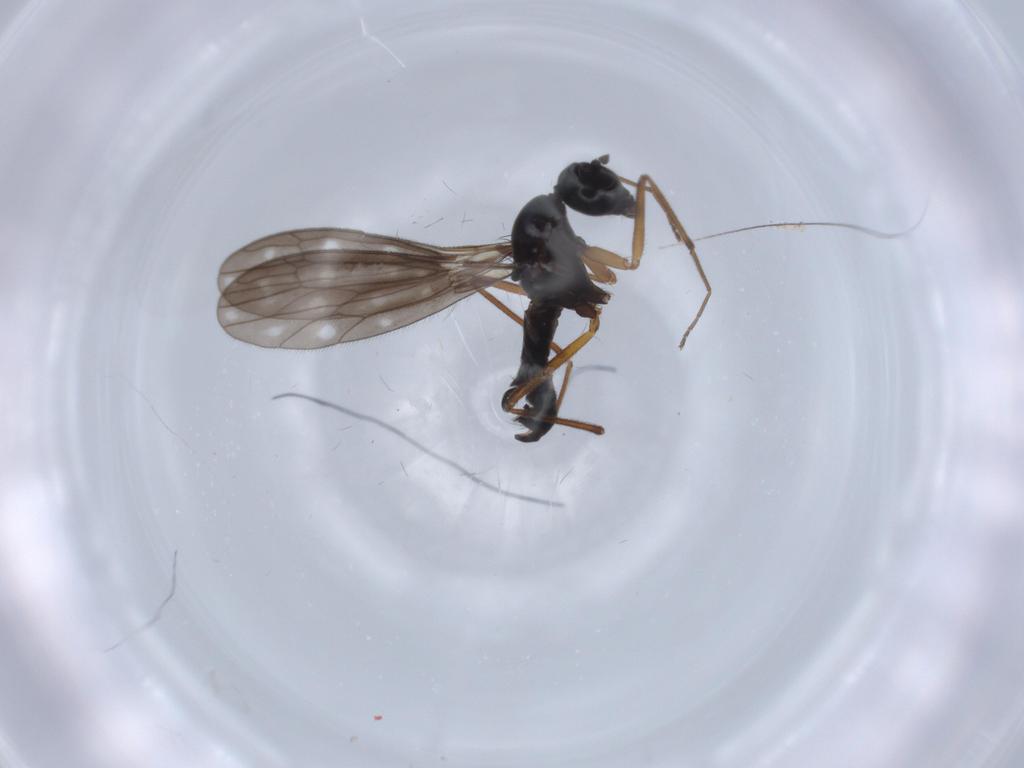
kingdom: Animalia
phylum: Arthropoda
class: Insecta
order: Diptera
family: Empididae
